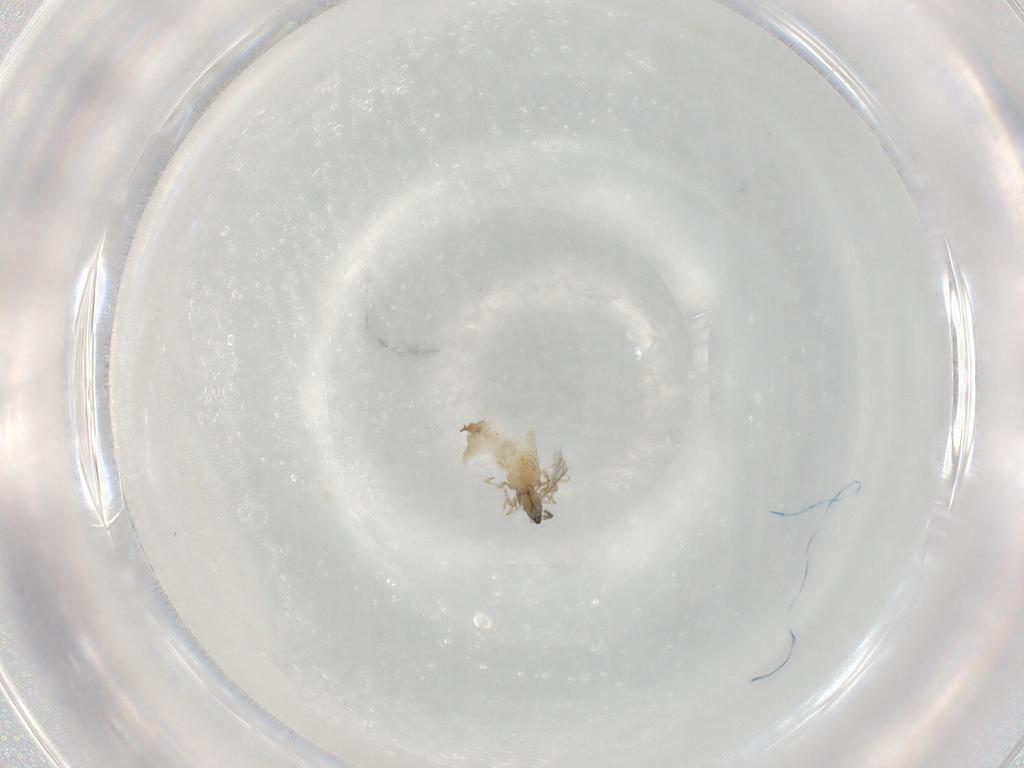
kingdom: Animalia
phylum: Arthropoda
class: Insecta
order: Diptera
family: Cecidomyiidae
